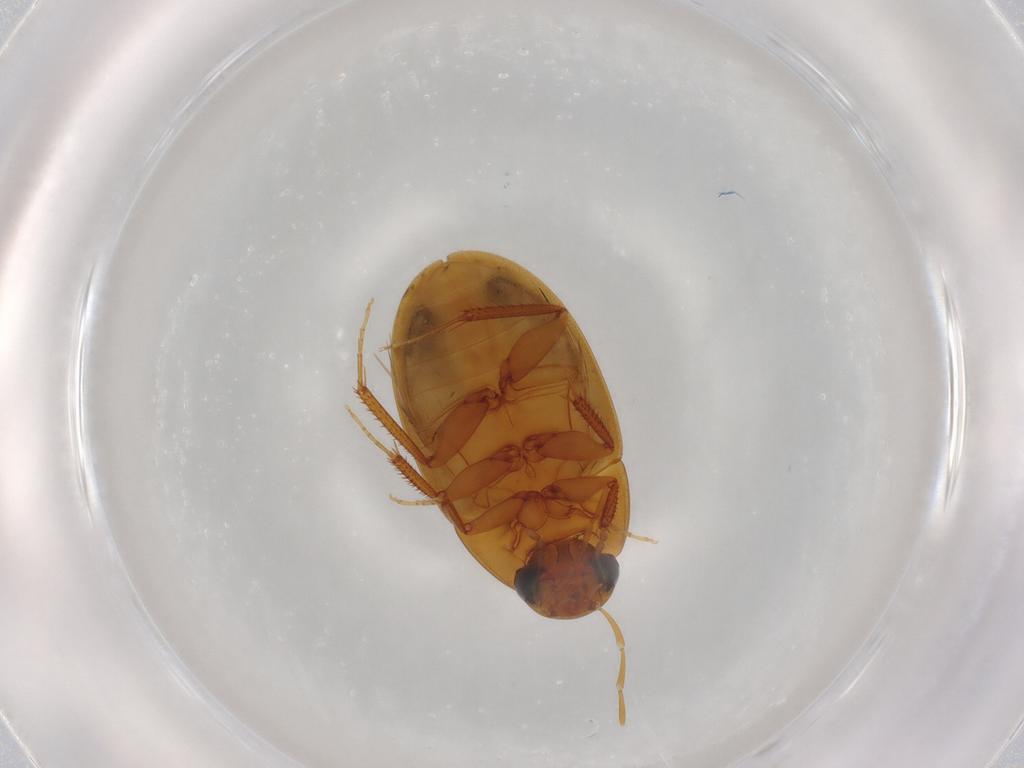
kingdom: Animalia
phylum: Arthropoda
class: Insecta
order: Coleoptera
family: Hydrophilidae
